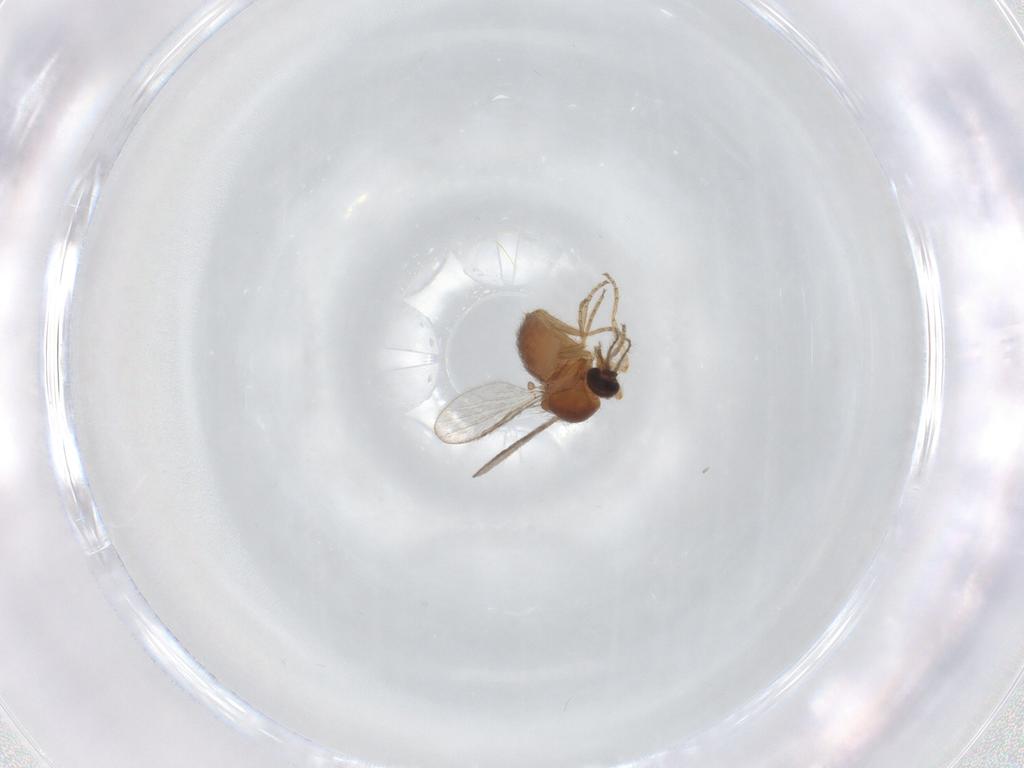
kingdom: Animalia
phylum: Arthropoda
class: Insecta
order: Diptera
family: Ceratopogonidae
